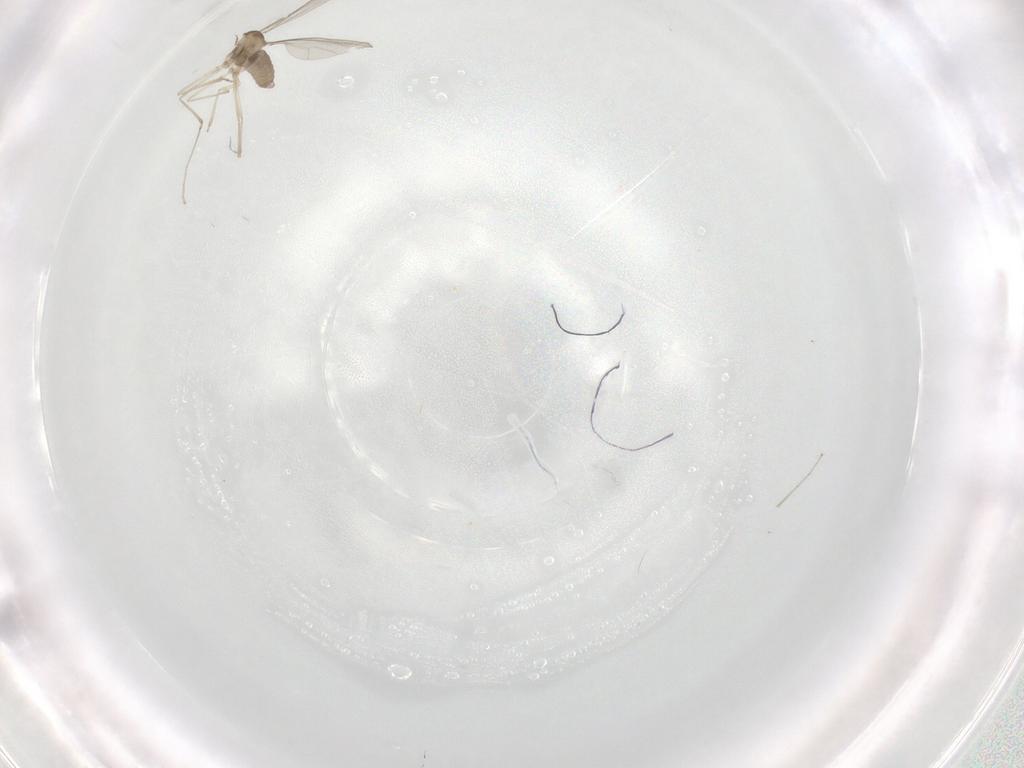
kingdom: Animalia
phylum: Arthropoda
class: Insecta
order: Diptera
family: Cecidomyiidae
